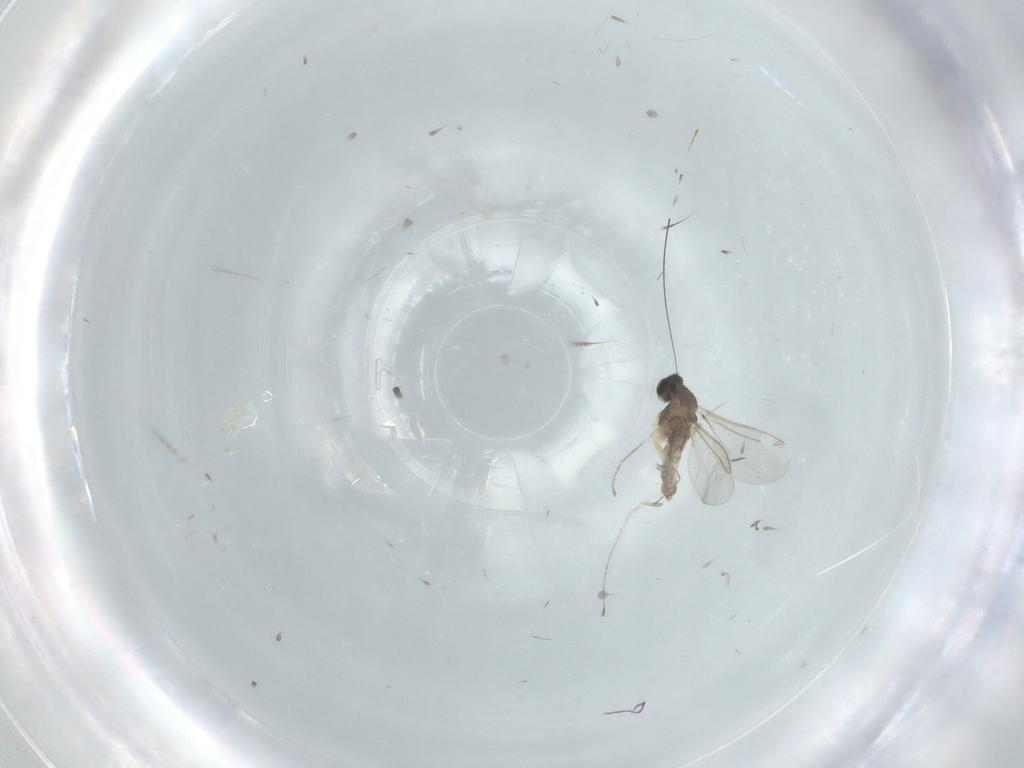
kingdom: Animalia
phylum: Arthropoda
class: Insecta
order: Diptera
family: Cecidomyiidae
